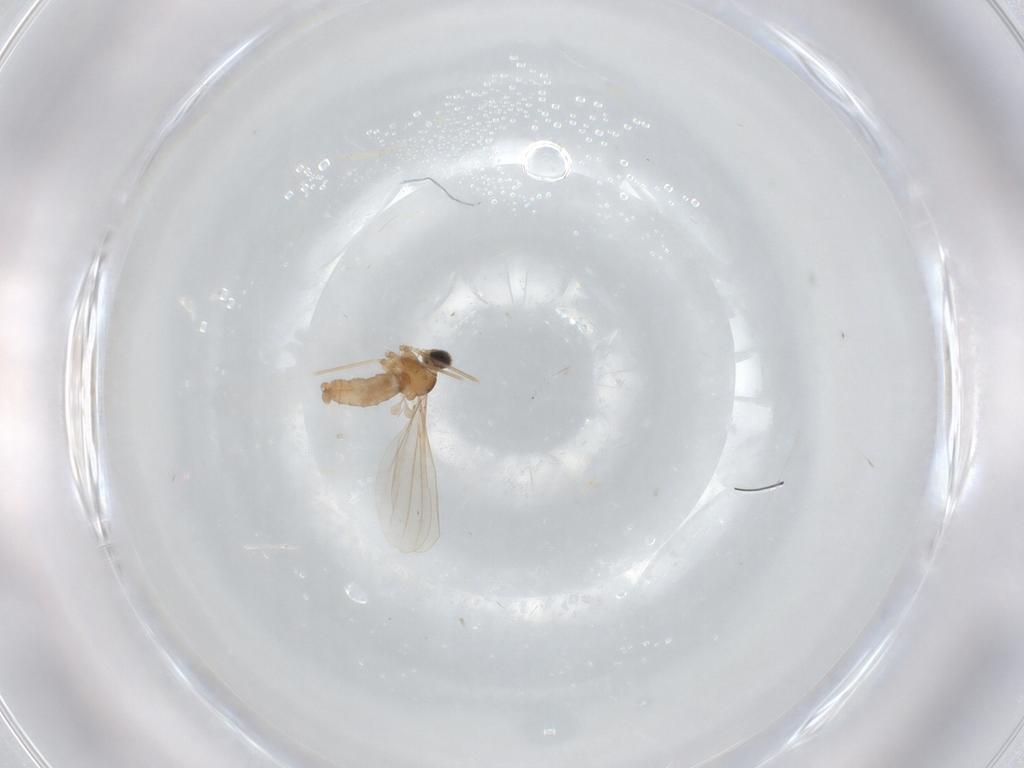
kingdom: Animalia
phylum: Arthropoda
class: Insecta
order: Diptera
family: Cecidomyiidae
